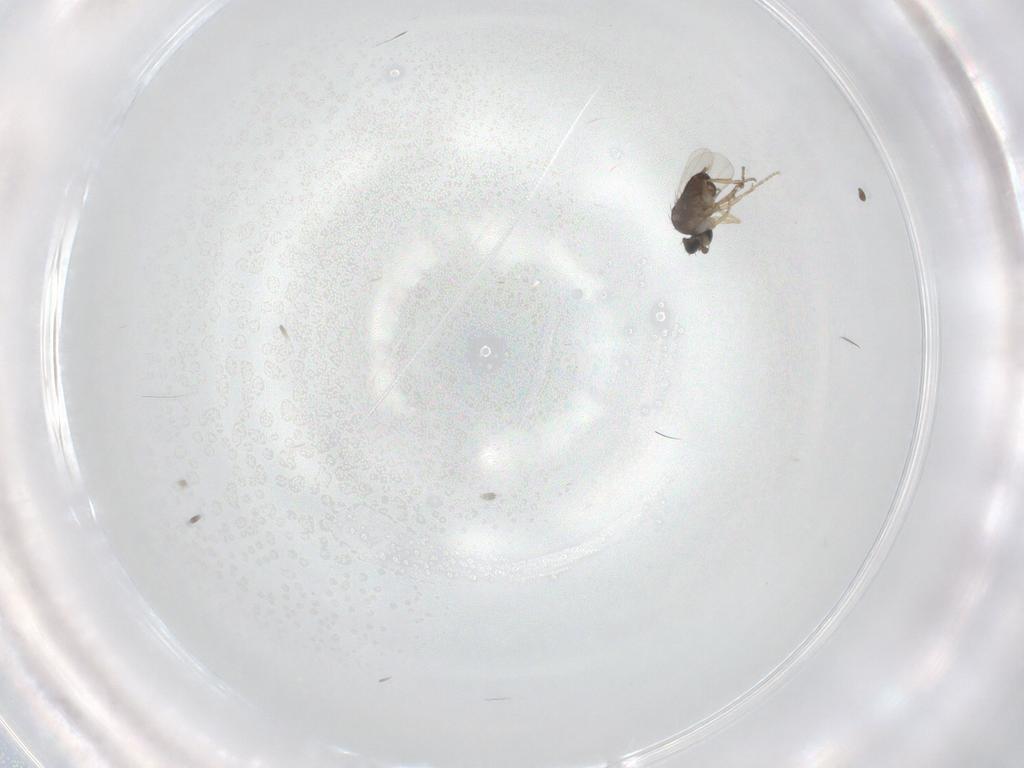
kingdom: Animalia
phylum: Arthropoda
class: Insecta
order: Diptera
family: Phoridae
